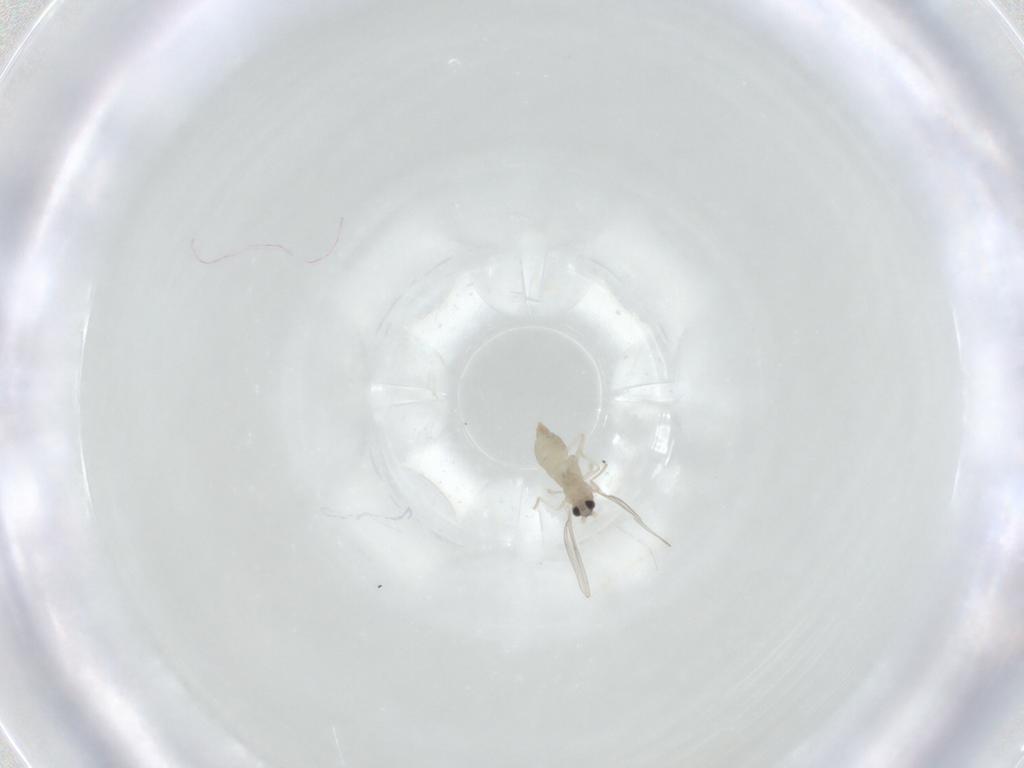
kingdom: Animalia
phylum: Arthropoda
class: Insecta
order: Diptera
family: Cecidomyiidae
